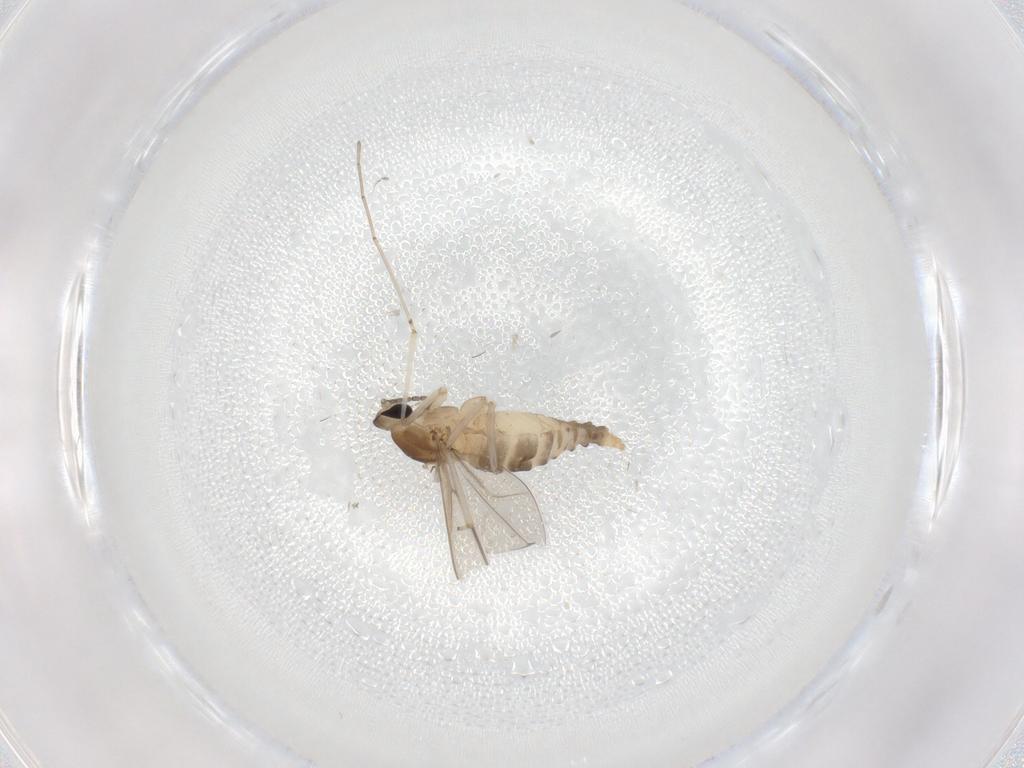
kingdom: Animalia
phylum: Arthropoda
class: Insecta
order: Diptera
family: Cecidomyiidae
